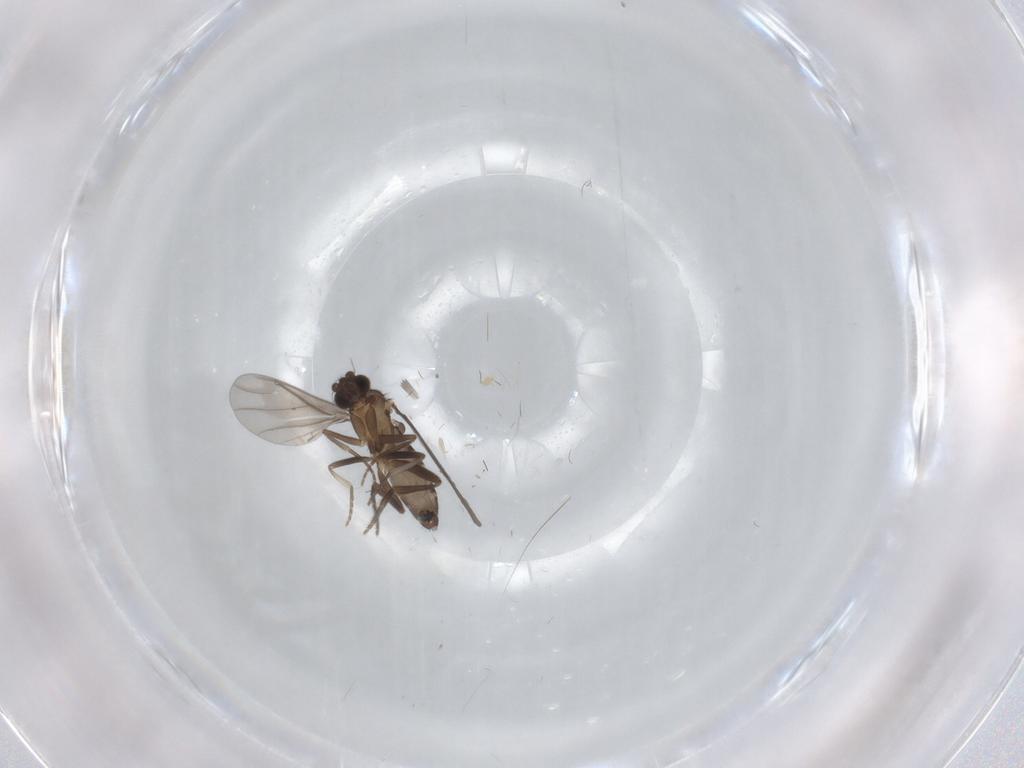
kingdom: Animalia
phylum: Arthropoda
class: Insecta
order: Diptera
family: Phoridae
